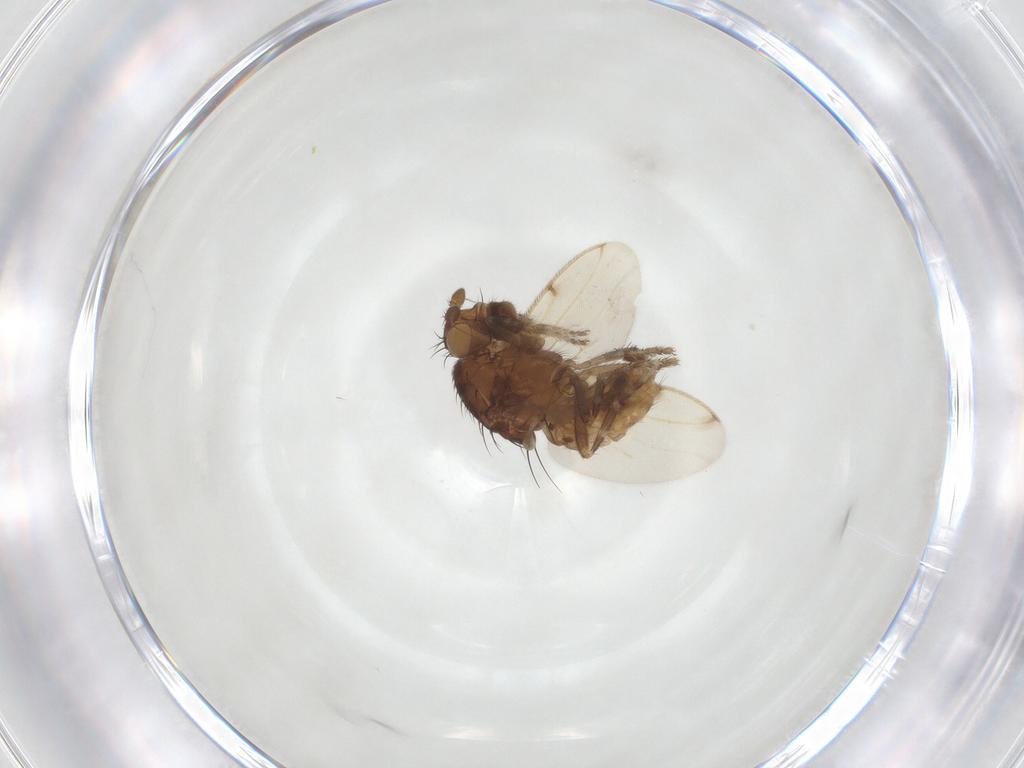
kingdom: Animalia
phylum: Arthropoda
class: Insecta
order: Diptera
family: Sphaeroceridae
